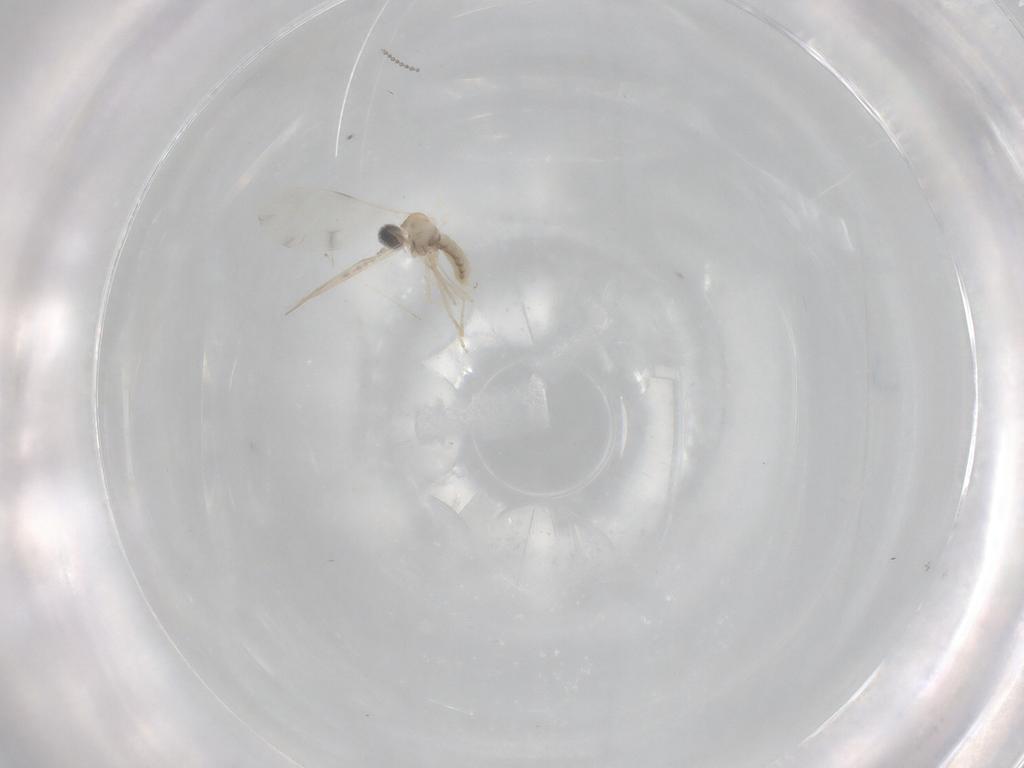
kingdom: Animalia
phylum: Arthropoda
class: Insecta
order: Diptera
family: Cecidomyiidae
